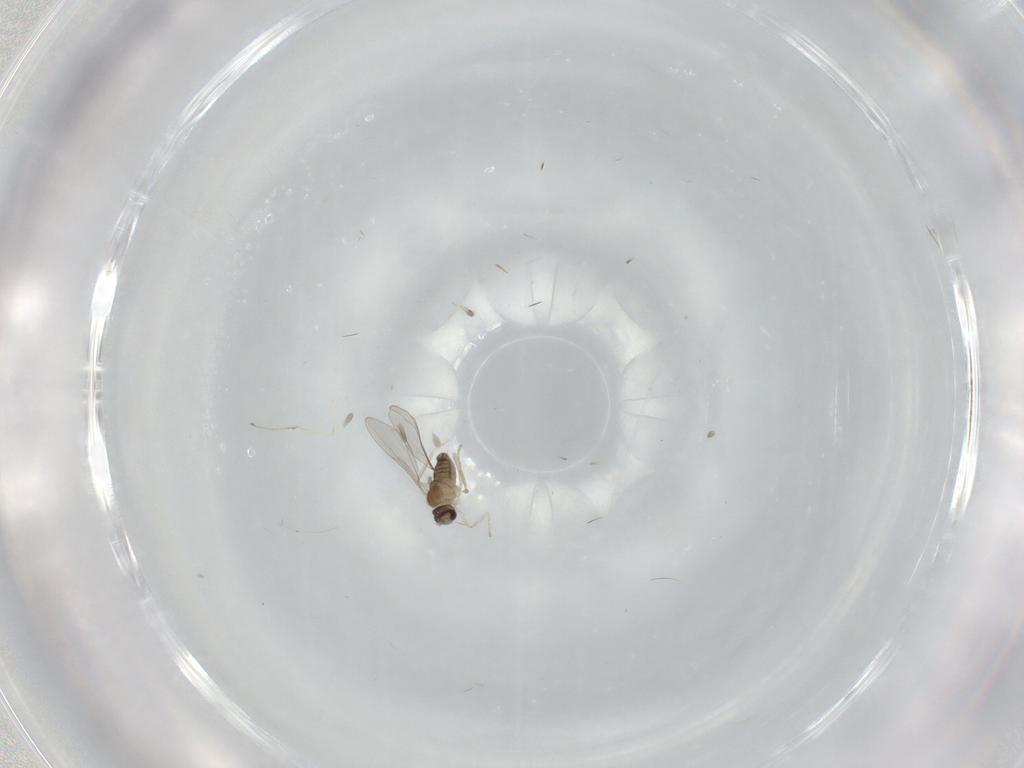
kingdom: Animalia
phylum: Arthropoda
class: Insecta
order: Diptera
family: Cecidomyiidae
